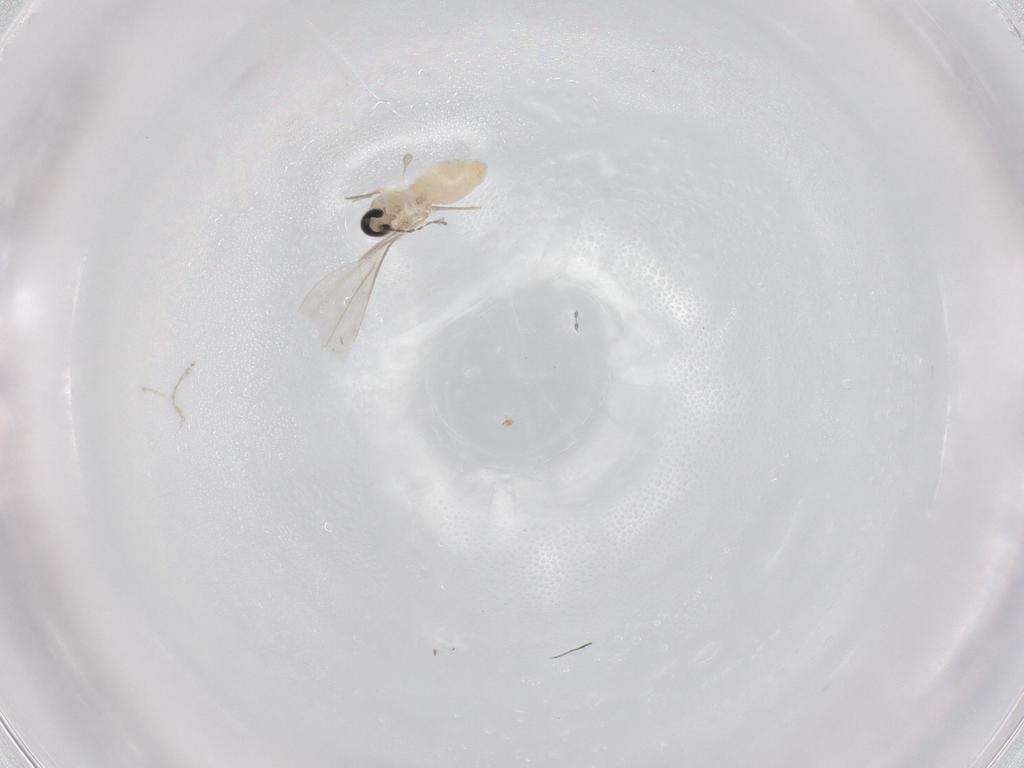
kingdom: Animalia
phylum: Arthropoda
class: Insecta
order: Diptera
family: Cecidomyiidae
